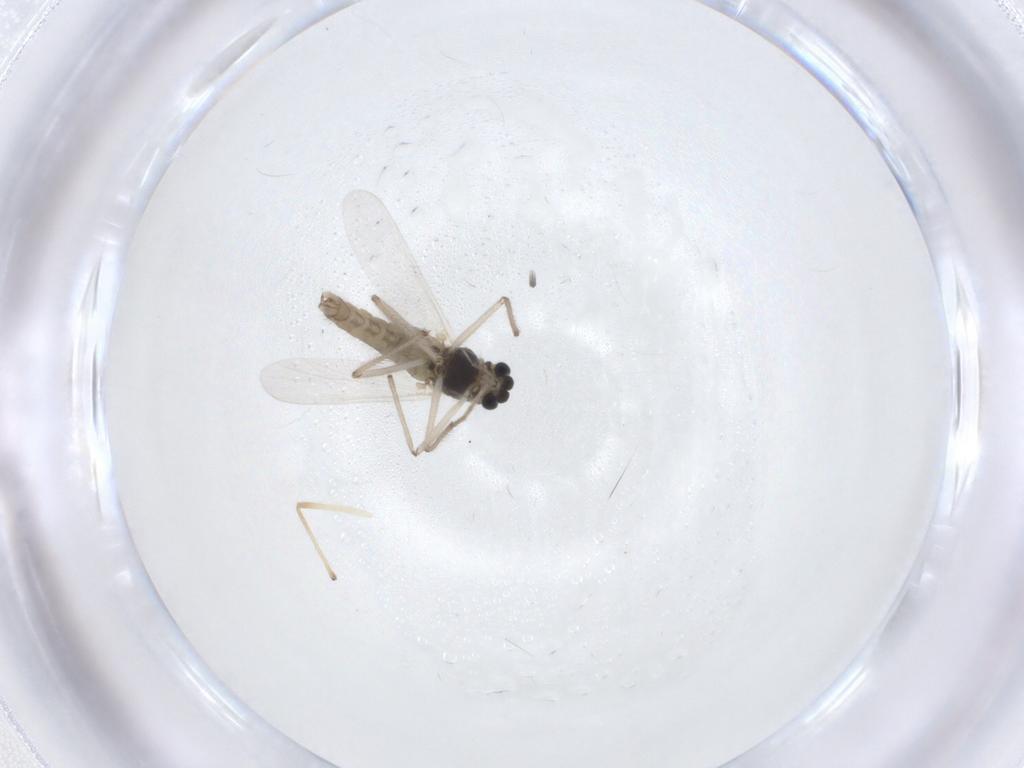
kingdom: Animalia
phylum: Arthropoda
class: Insecta
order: Diptera
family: Chironomidae
